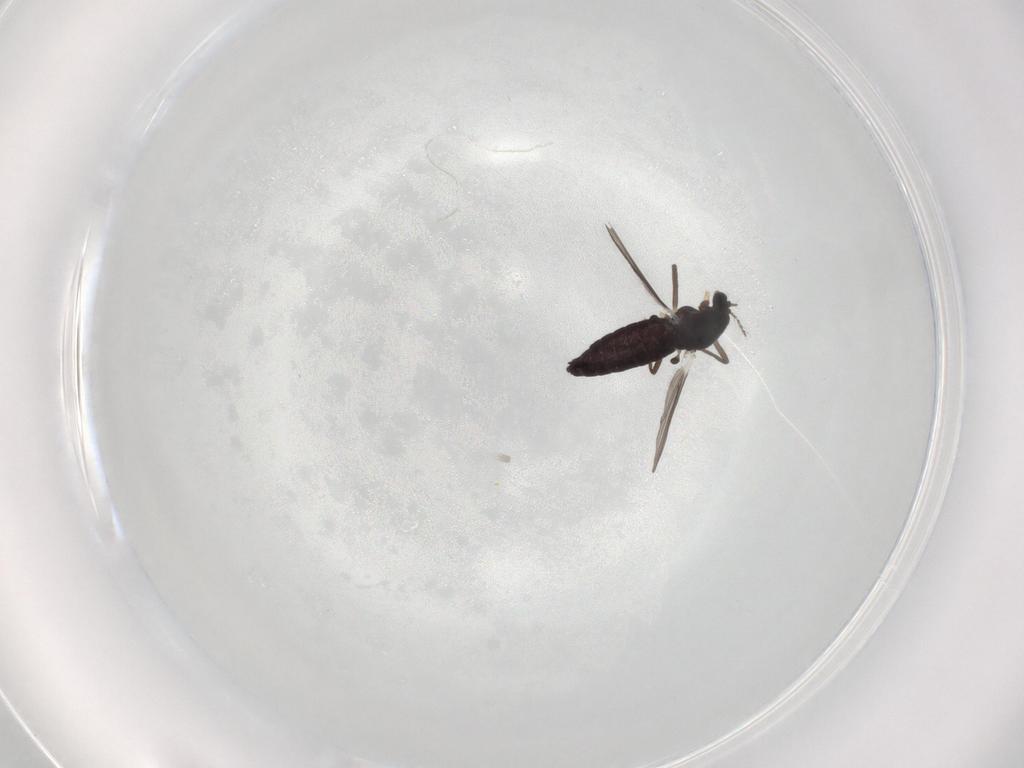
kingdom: Animalia
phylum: Arthropoda
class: Insecta
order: Diptera
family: Chironomidae
